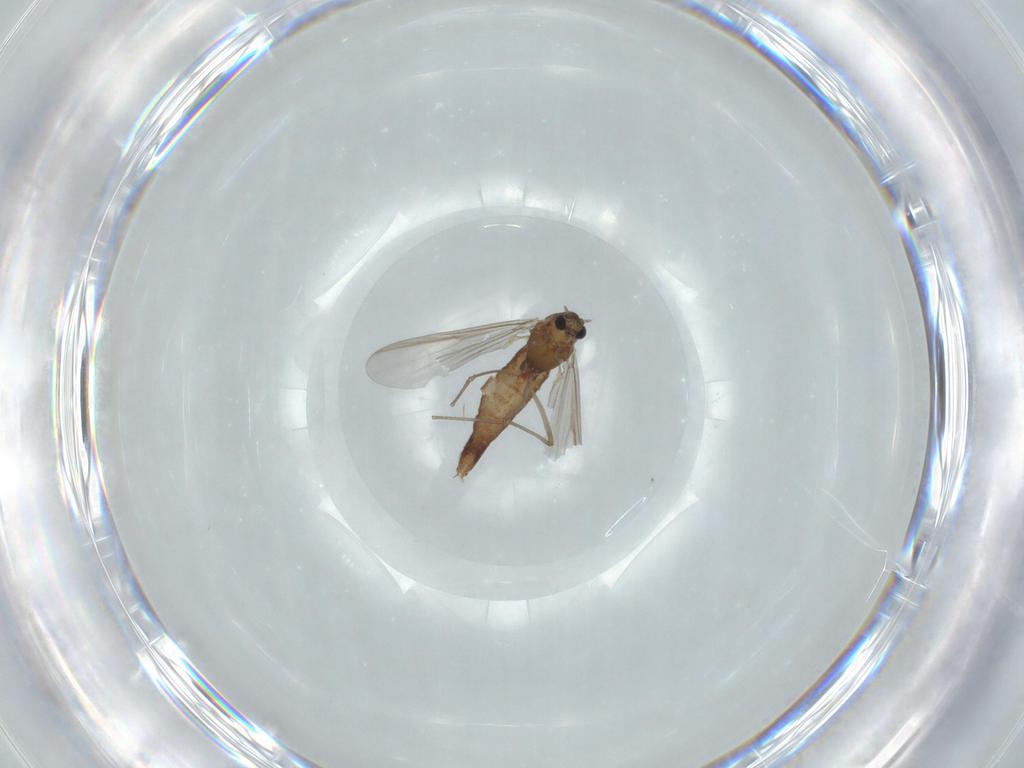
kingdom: Animalia
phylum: Arthropoda
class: Insecta
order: Diptera
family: Chironomidae
